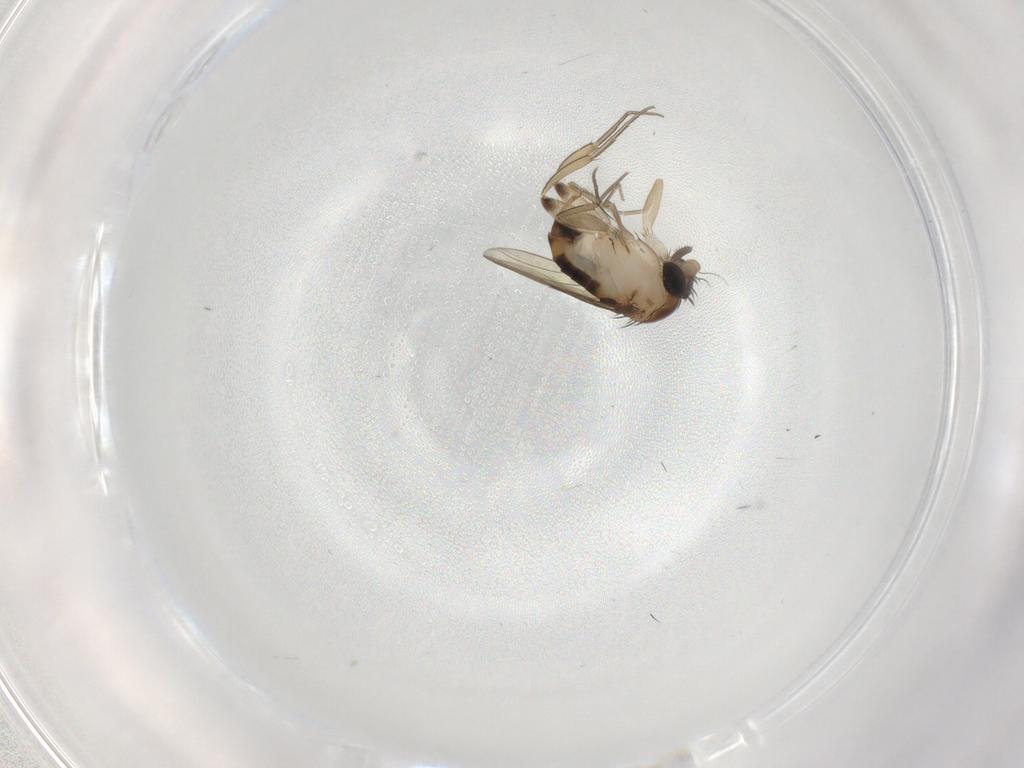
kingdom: Animalia
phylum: Arthropoda
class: Insecta
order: Diptera
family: Phoridae
